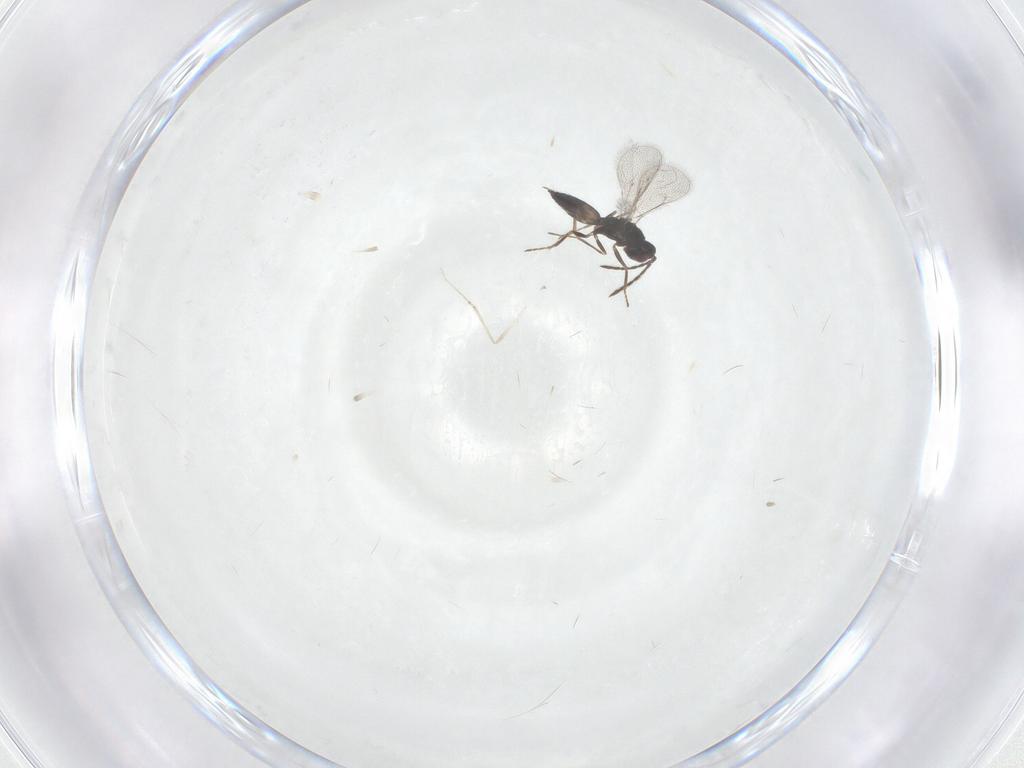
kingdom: Animalia
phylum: Arthropoda
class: Insecta
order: Hymenoptera
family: Eulophidae
